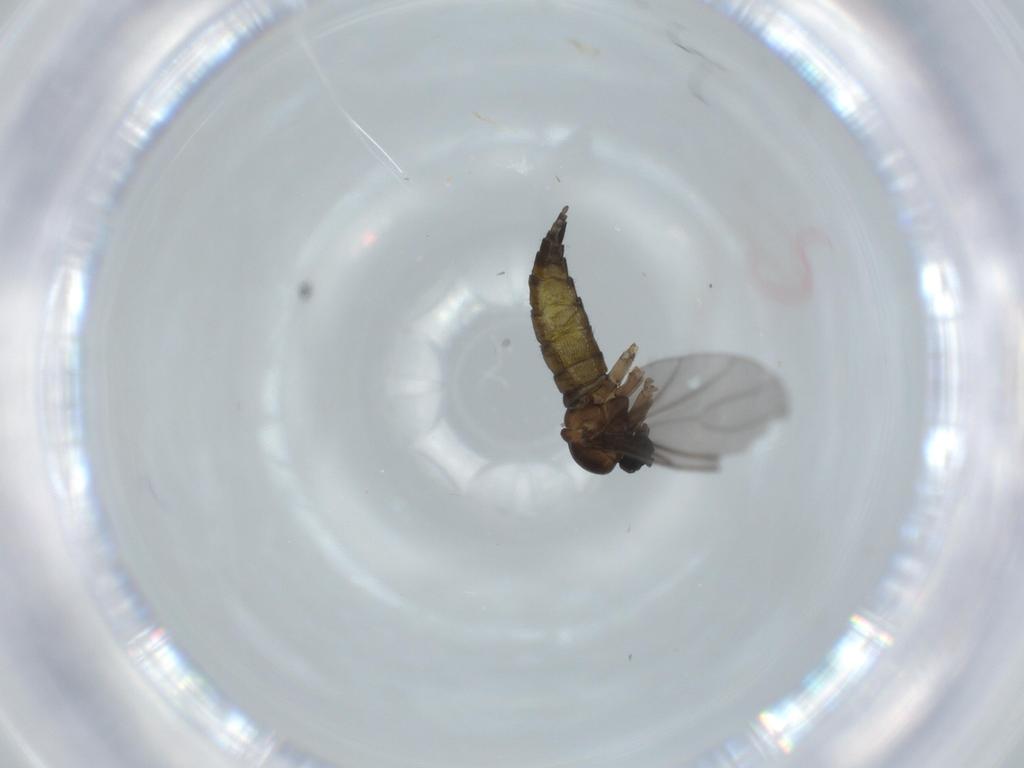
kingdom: Animalia
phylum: Arthropoda
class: Insecta
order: Diptera
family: Sciaridae
